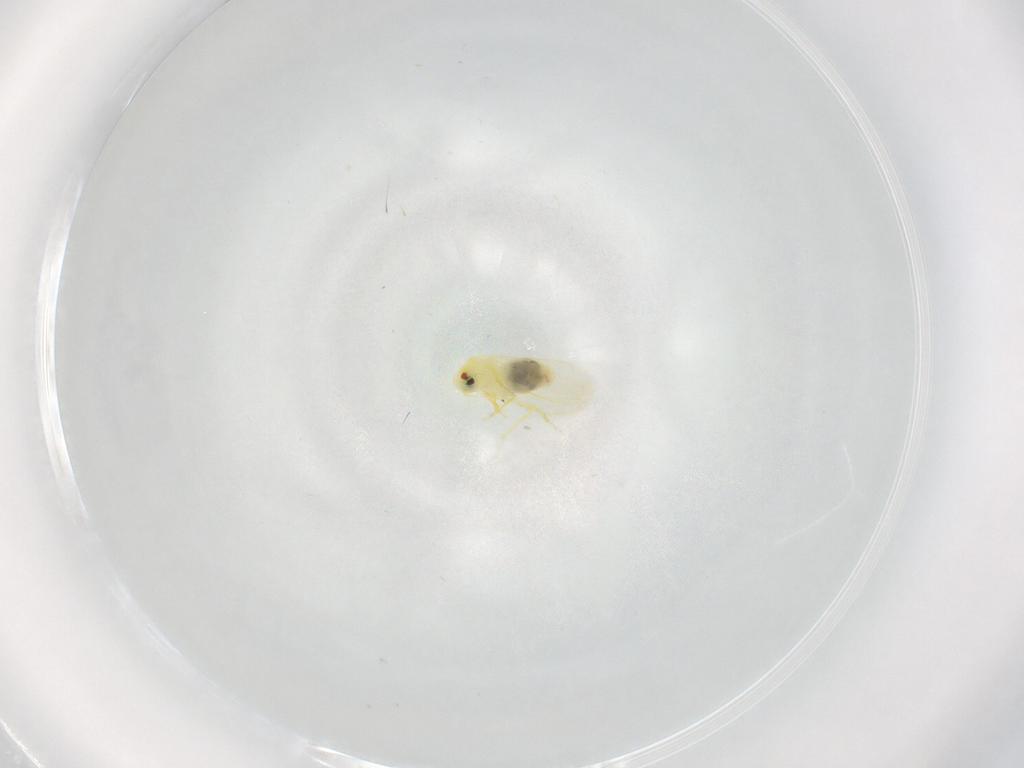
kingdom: Animalia
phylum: Arthropoda
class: Insecta
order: Hemiptera
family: Aleyrodidae
